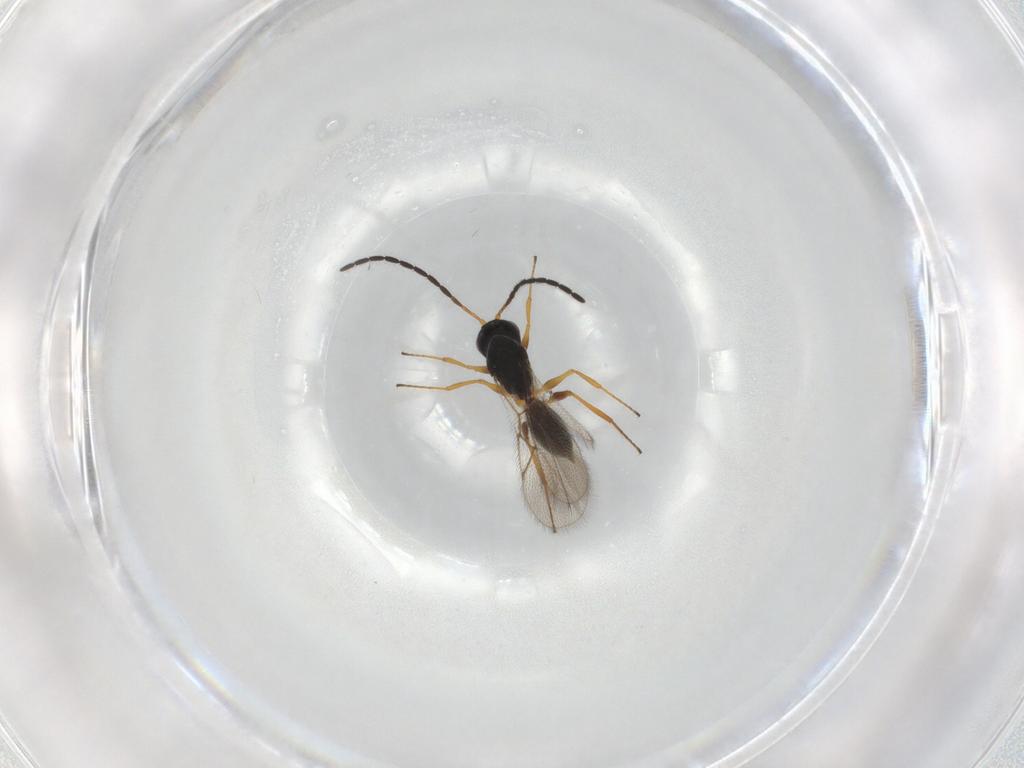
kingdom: Animalia
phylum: Arthropoda
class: Insecta
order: Hymenoptera
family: Figitidae
